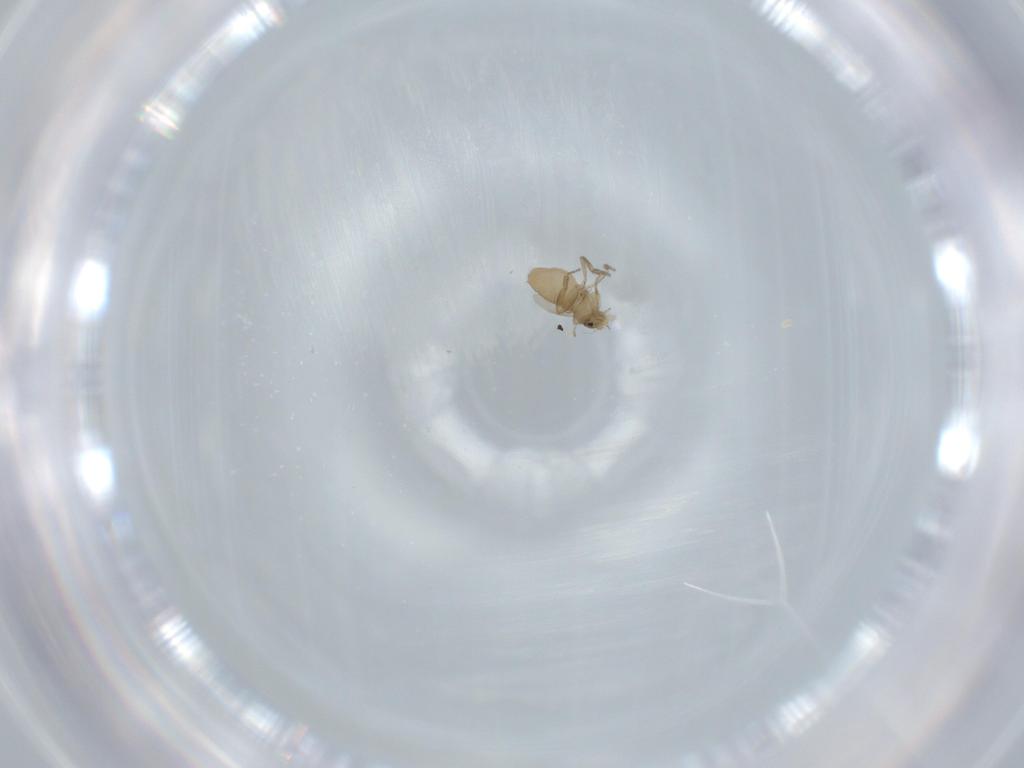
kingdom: Animalia
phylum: Arthropoda
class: Insecta
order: Diptera
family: Phoridae
